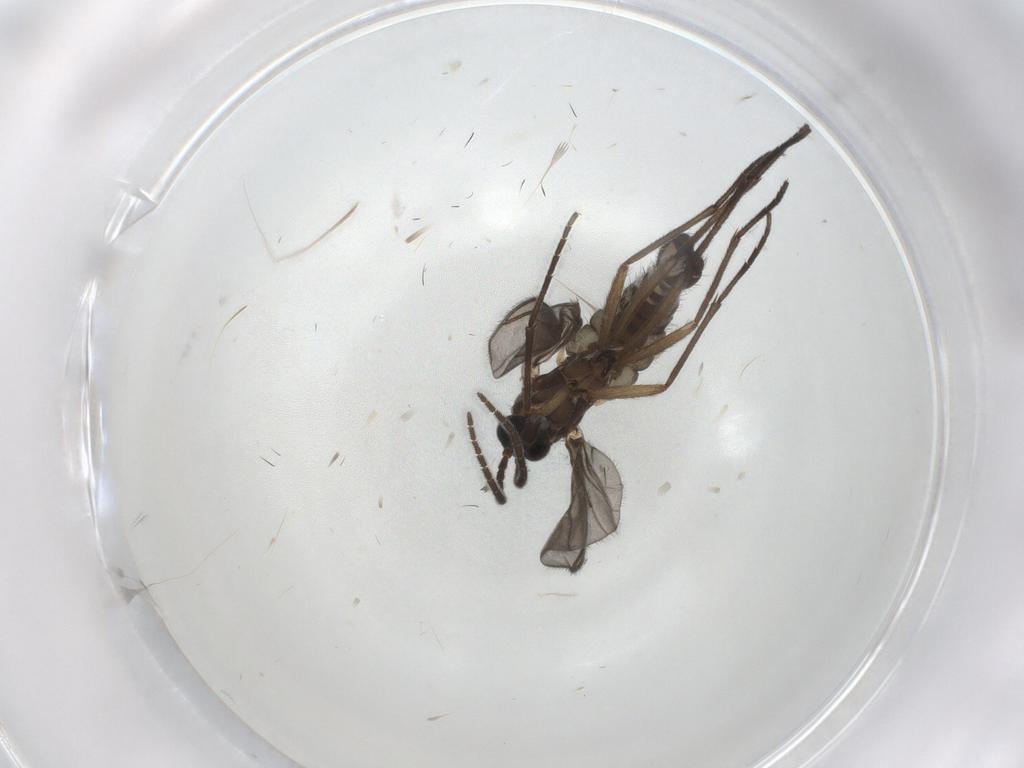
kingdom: Animalia
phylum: Arthropoda
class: Insecta
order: Diptera
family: Sciaridae
